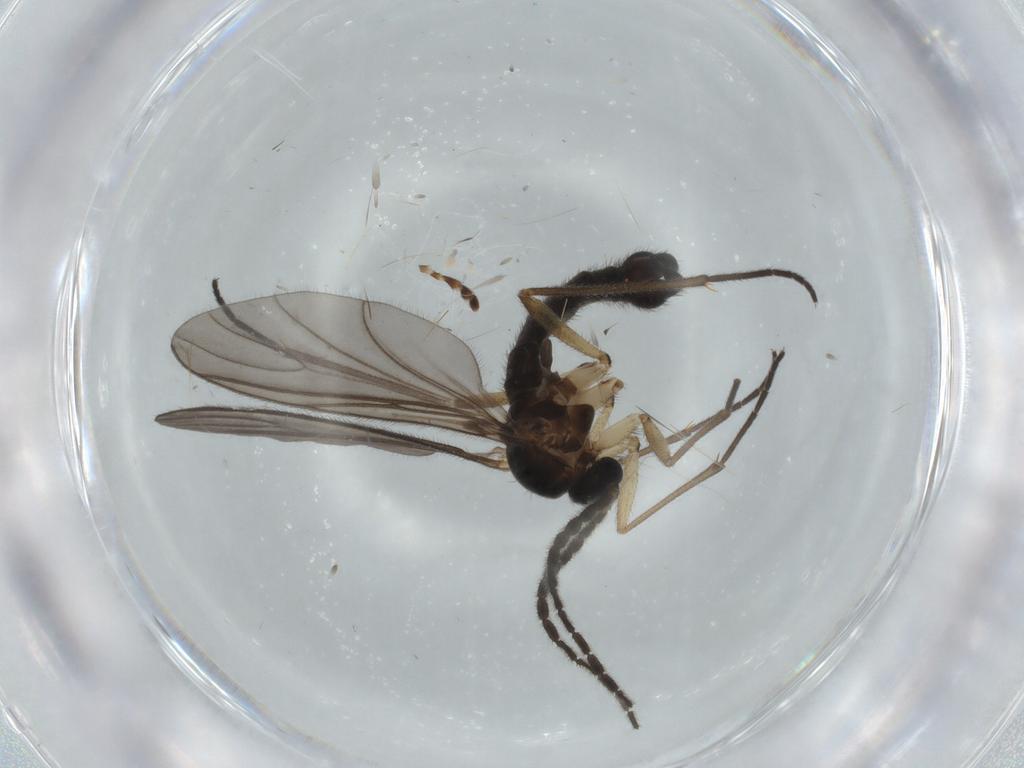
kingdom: Animalia
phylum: Arthropoda
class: Insecta
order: Diptera
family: Sciaridae
